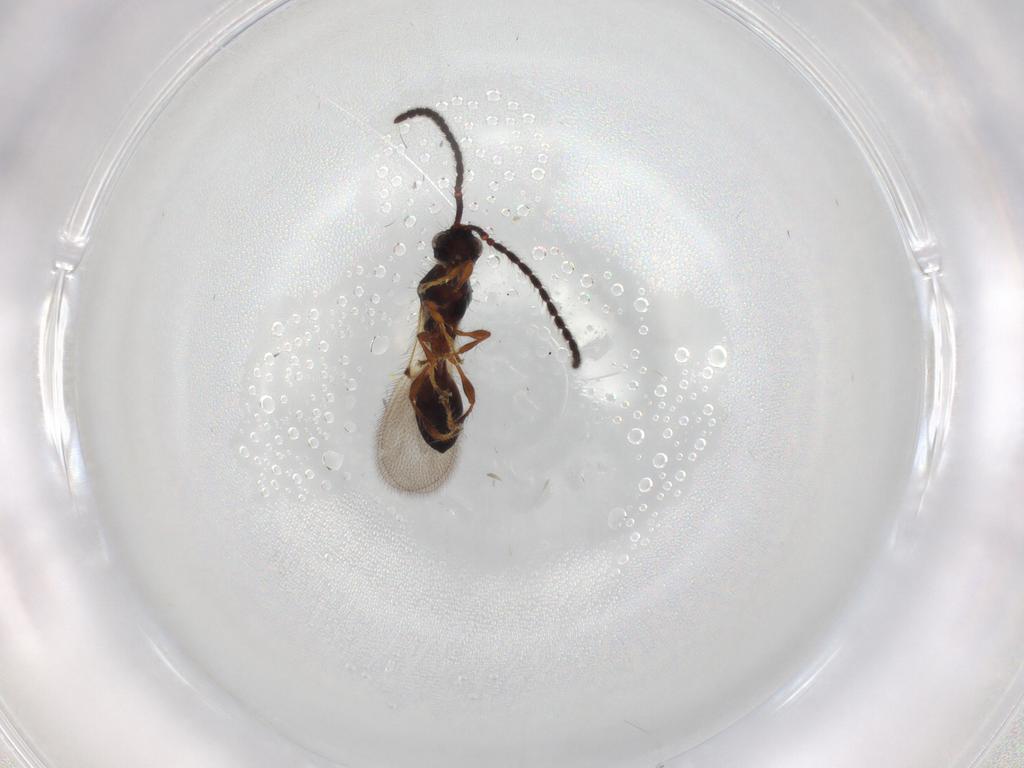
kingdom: Animalia
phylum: Arthropoda
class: Insecta
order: Hymenoptera
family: Diapriidae
